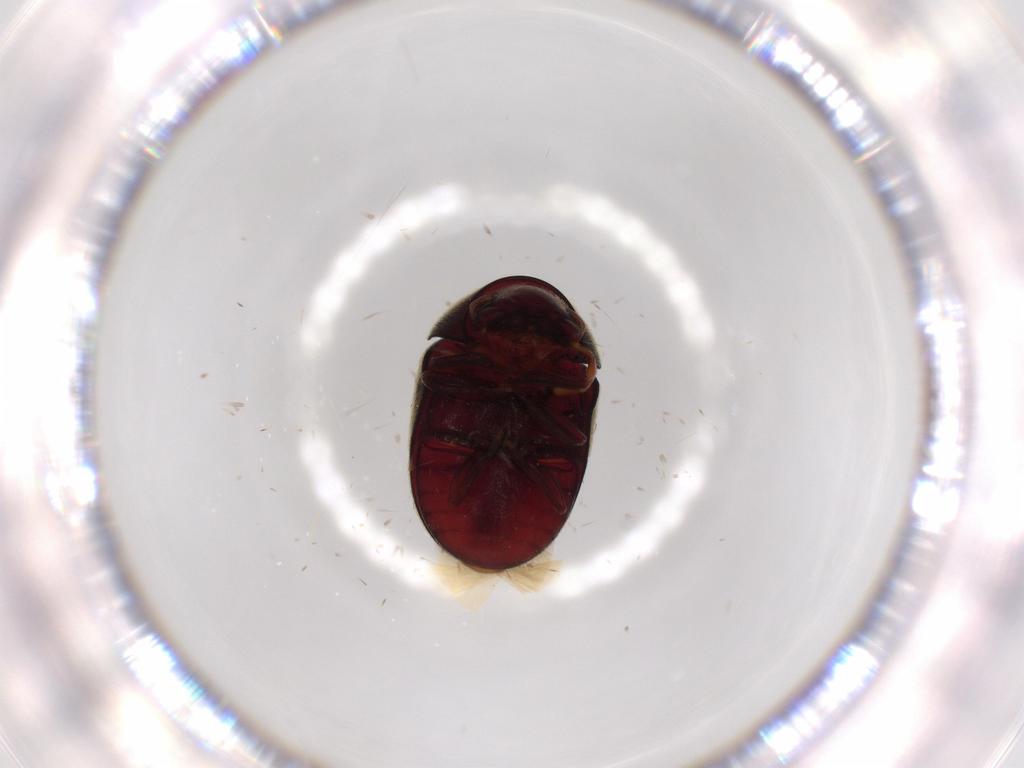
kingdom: Animalia
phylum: Arthropoda
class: Insecta
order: Coleoptera
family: Ptinidae
